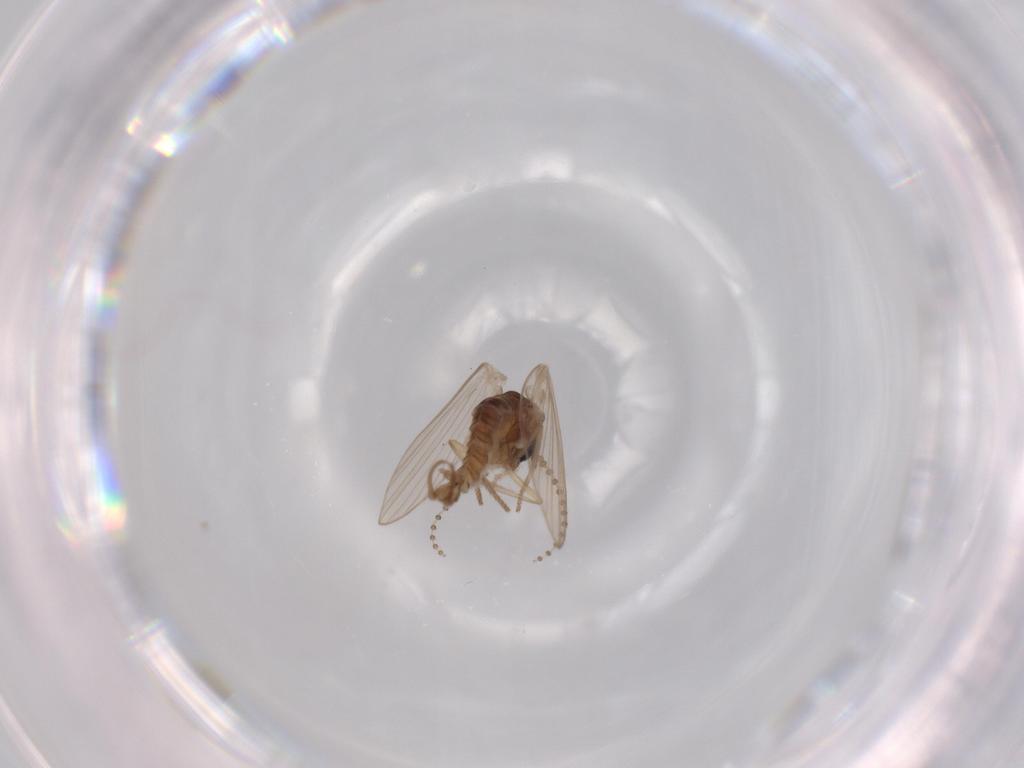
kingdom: Animalia
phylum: Arthropoda
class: Insecta
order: Diptera
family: Psychodidae
